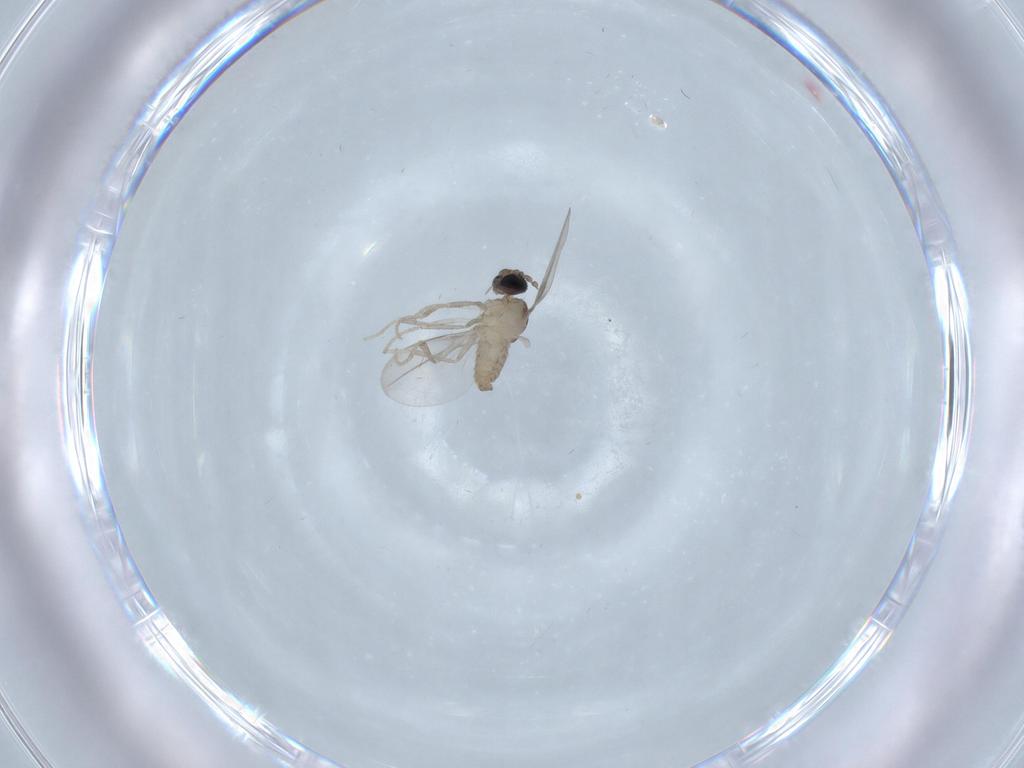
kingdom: Animalia
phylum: Arthropoda
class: Insecta
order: Diptera
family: Cecidomyiidae
